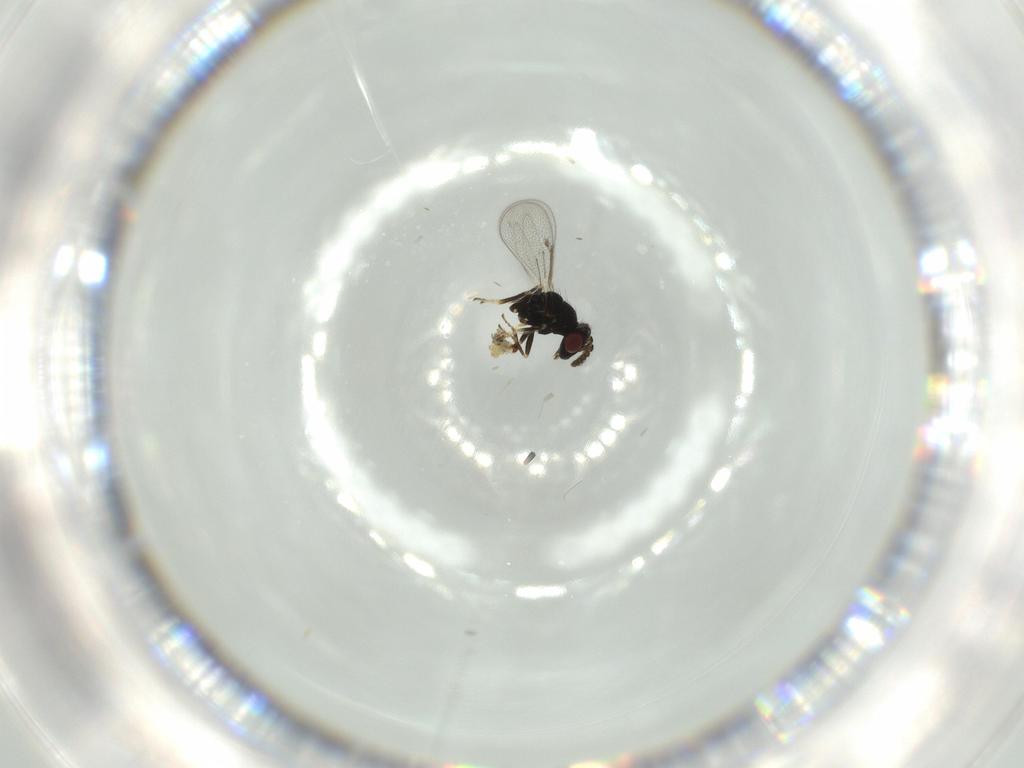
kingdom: Animalia
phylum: Arthropoda
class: Insecta
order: Diptera
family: Cecidomyiidae
